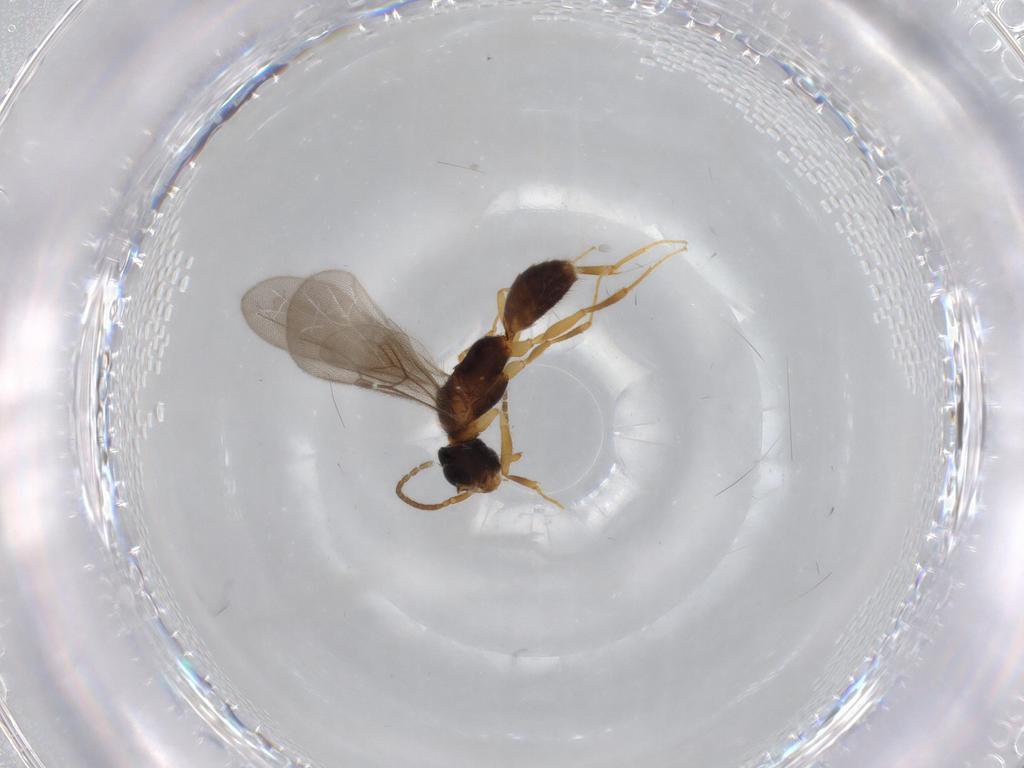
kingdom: Animalia
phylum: Arthropoda
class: Insecta
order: Hymenoptera
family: Bethylidae
